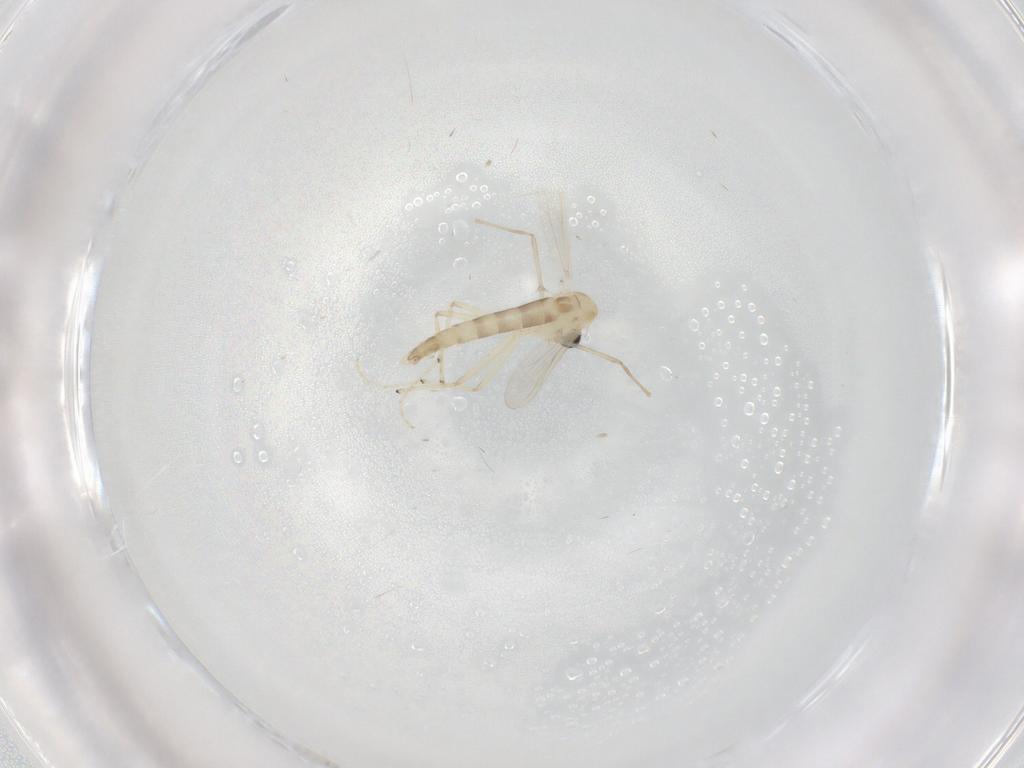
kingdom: Animalia
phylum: Arthropoda
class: Insecta
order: Diptera
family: Chironomidae
